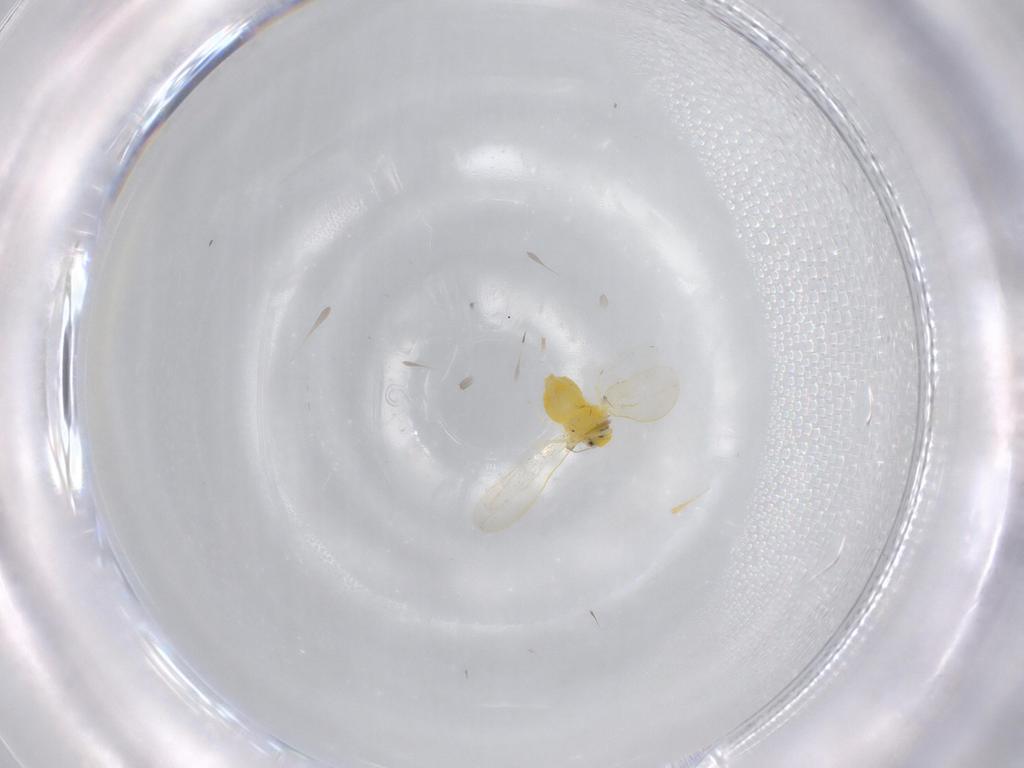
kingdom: Animalia
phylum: Arthropoda
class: Insecta
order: Hemiptera
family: Aleyrodidae
